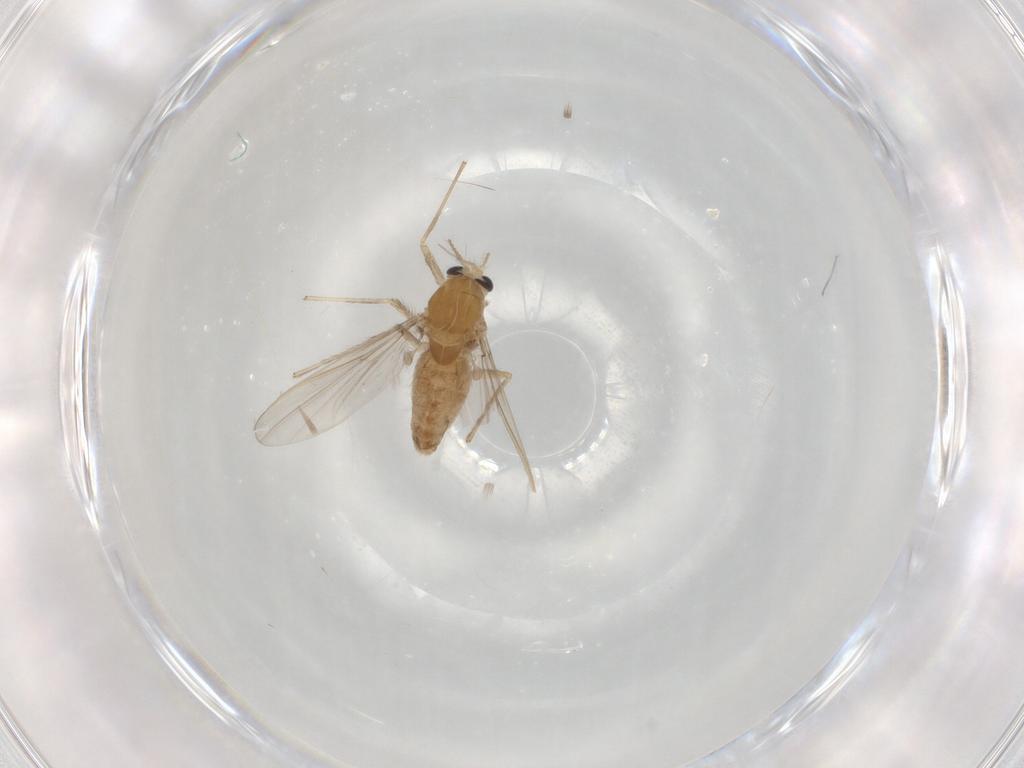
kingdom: Animalia
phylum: Arthropoda
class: Insecta
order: Diptera
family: Chironomidae
